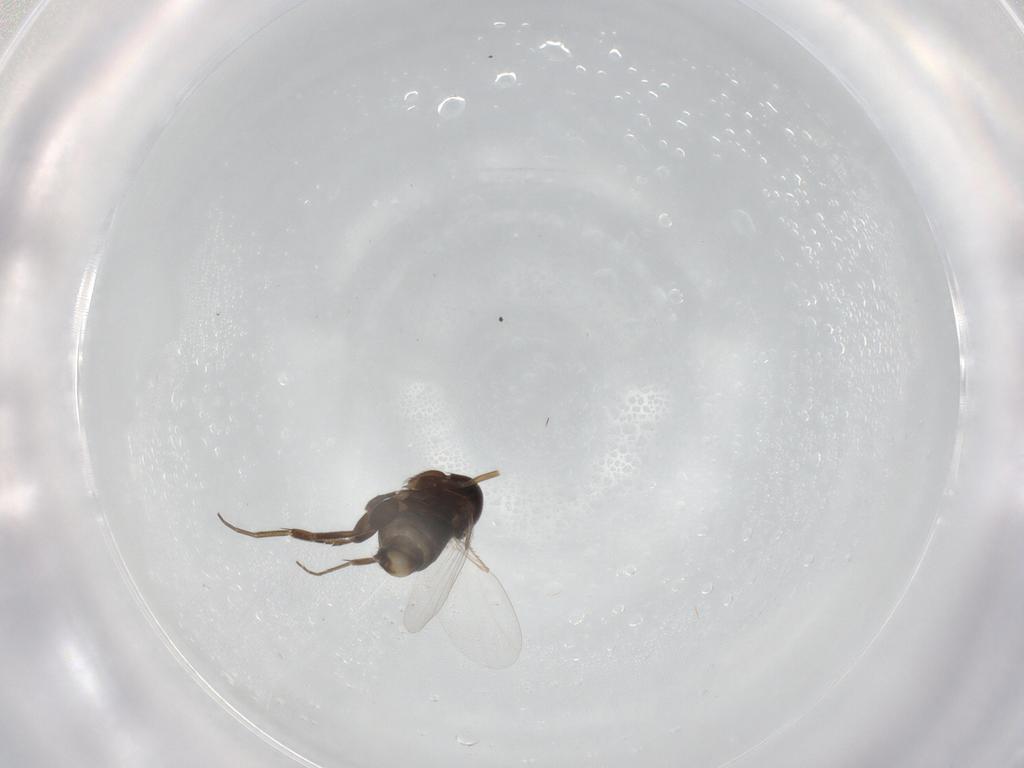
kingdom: Animalia
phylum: Arthropoda
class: Insecta
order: Diptera
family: Phoridae
